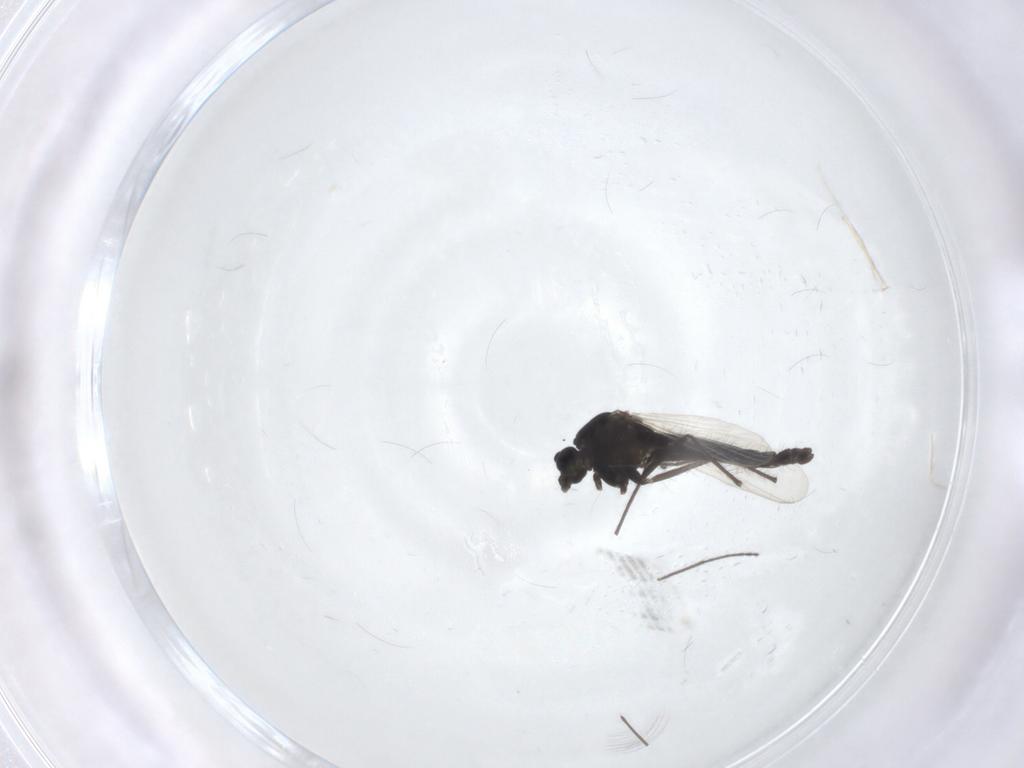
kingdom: Animalia
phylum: Arthropoda
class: Insecta
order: Diptera
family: Chironomidae
